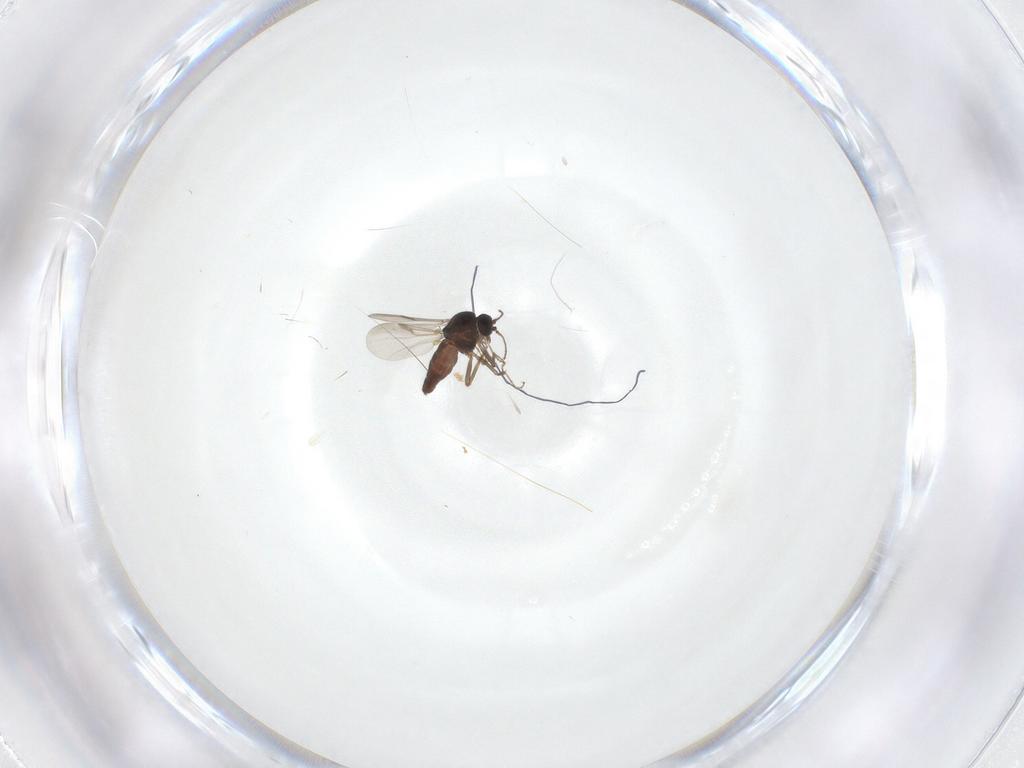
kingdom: Animalia
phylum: Arthropoda
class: Insecta
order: Diptera
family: Ceratopogonidae
